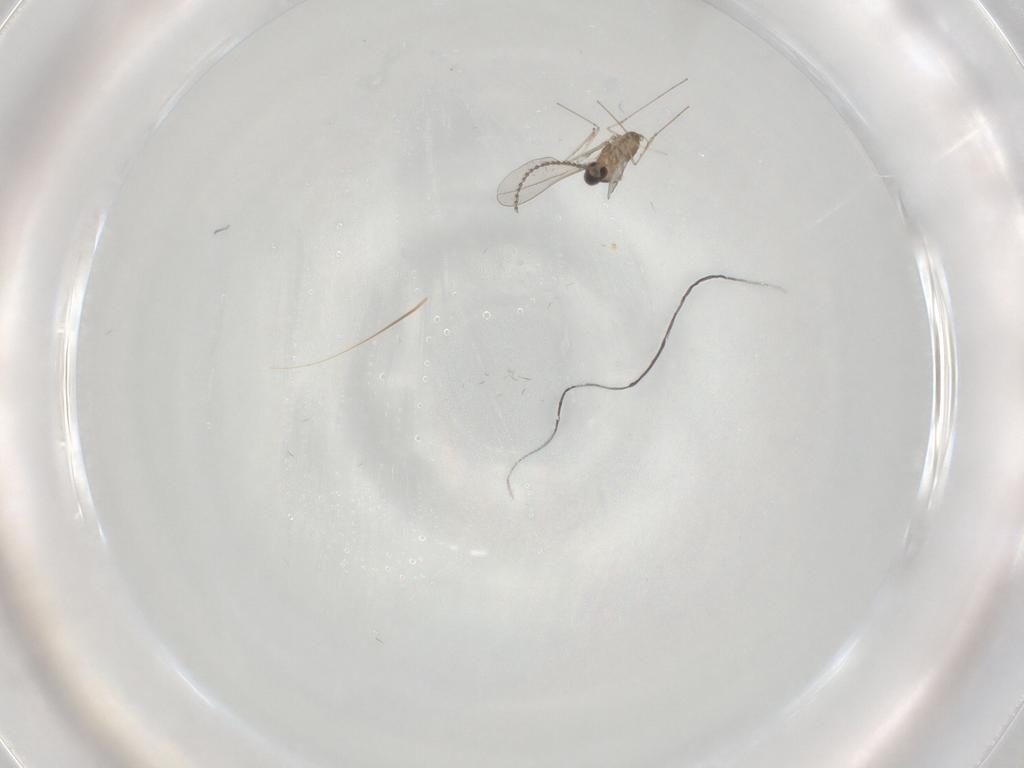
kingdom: Animalia
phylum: Arthropoda
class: Insecta
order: Diptera
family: Cecidomyiidae
